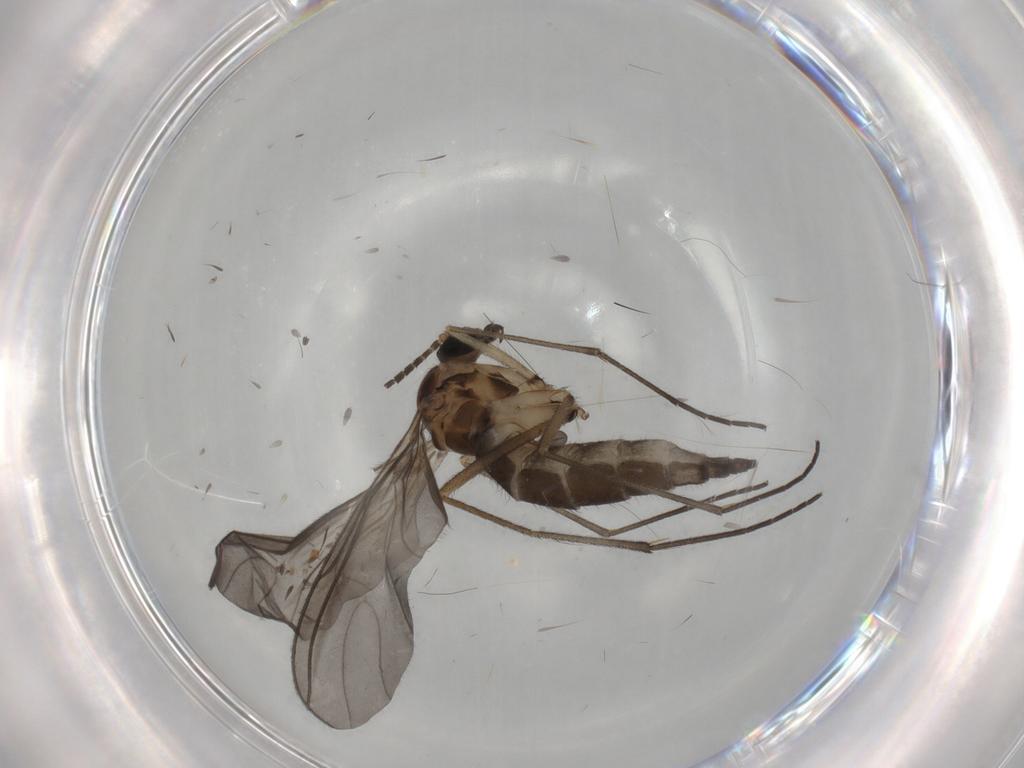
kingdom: Animalia
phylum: Arthropoda
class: Insecta
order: Diptera
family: Sciaridae
